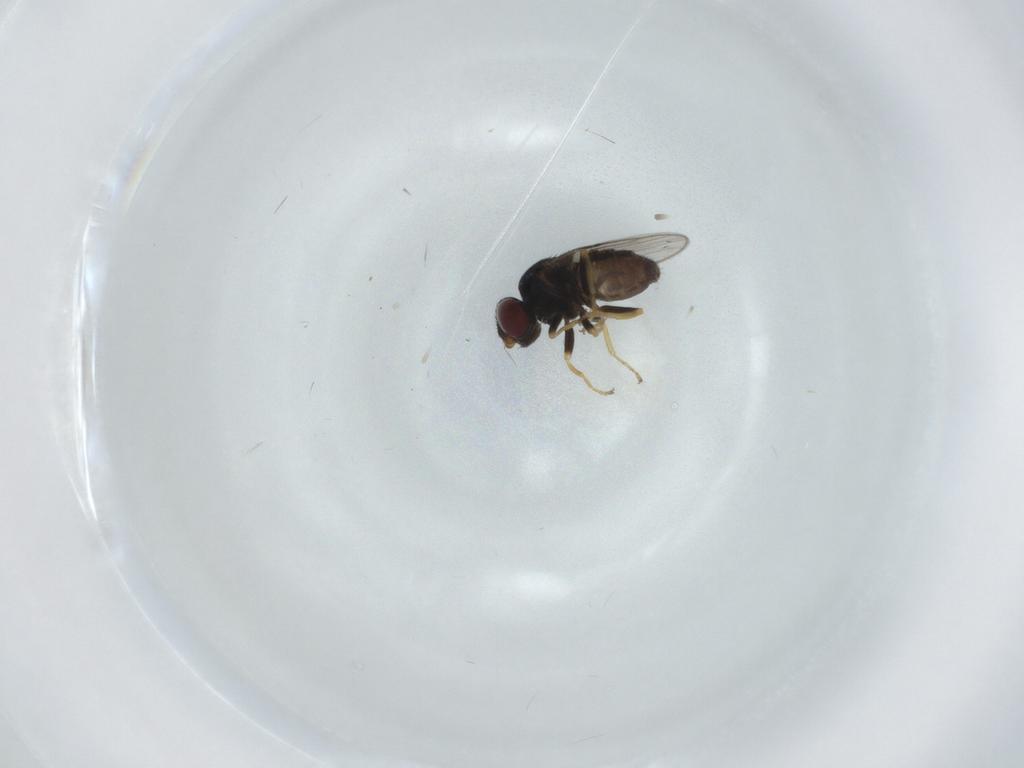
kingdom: Animalia
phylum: Arthropoda
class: Insecta
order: Diptera
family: Chloropidae
